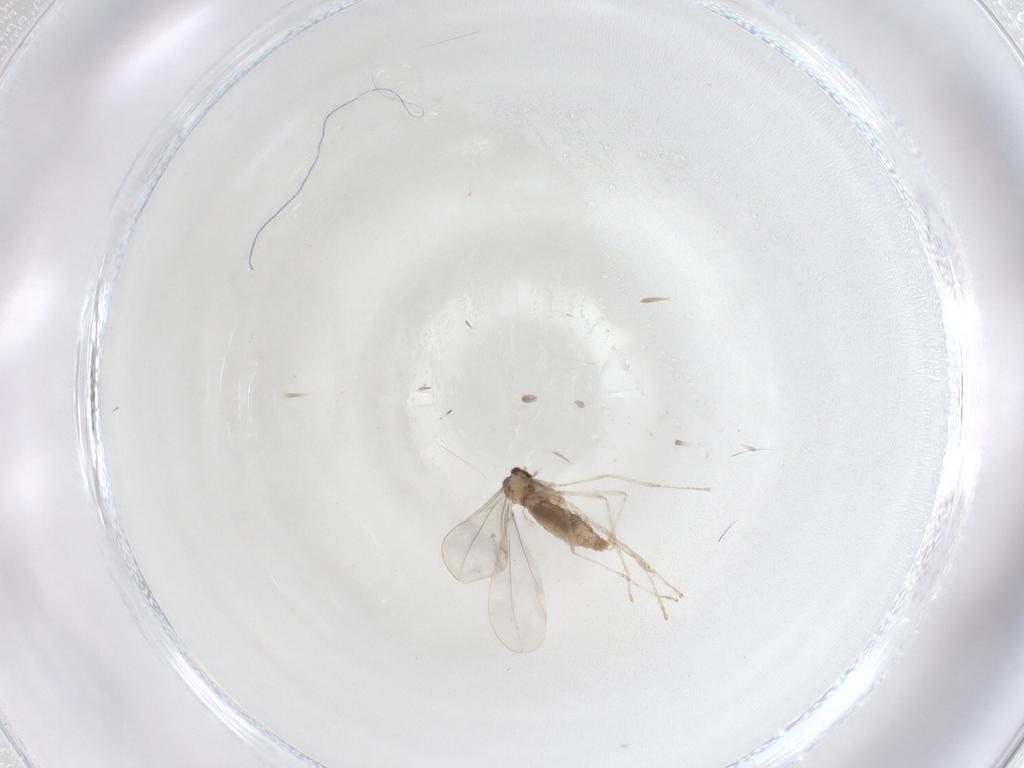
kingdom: Animalia
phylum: Arthropoda
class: Insecta
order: Diptera
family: Cecidomyiidae
